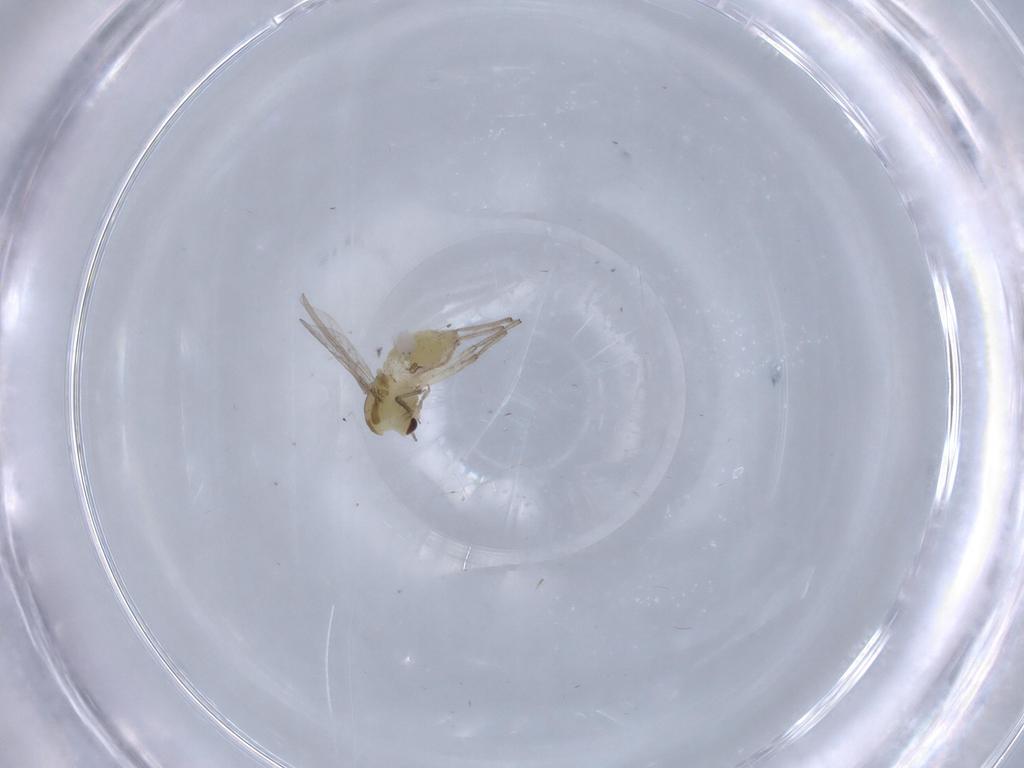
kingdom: Animalia
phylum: Arthropoda
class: Insecta
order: Diptera
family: Chironomidae
